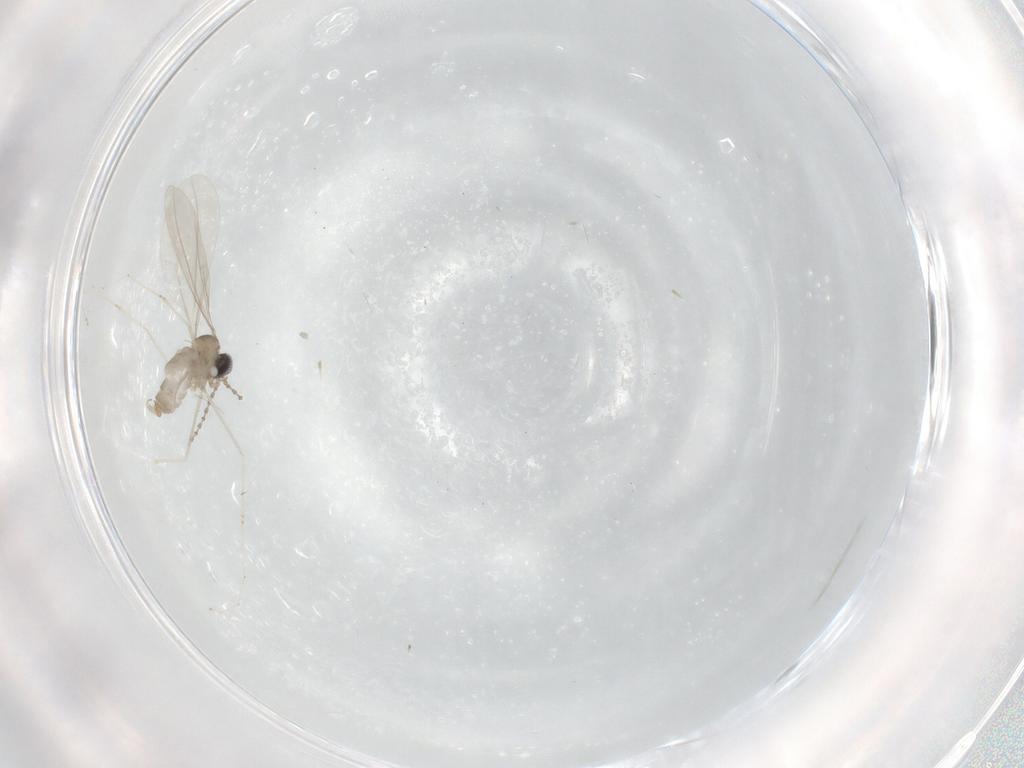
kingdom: Animalia
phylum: Arthropoda
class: Insecta
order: Diptera
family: Cecidomyiidae
